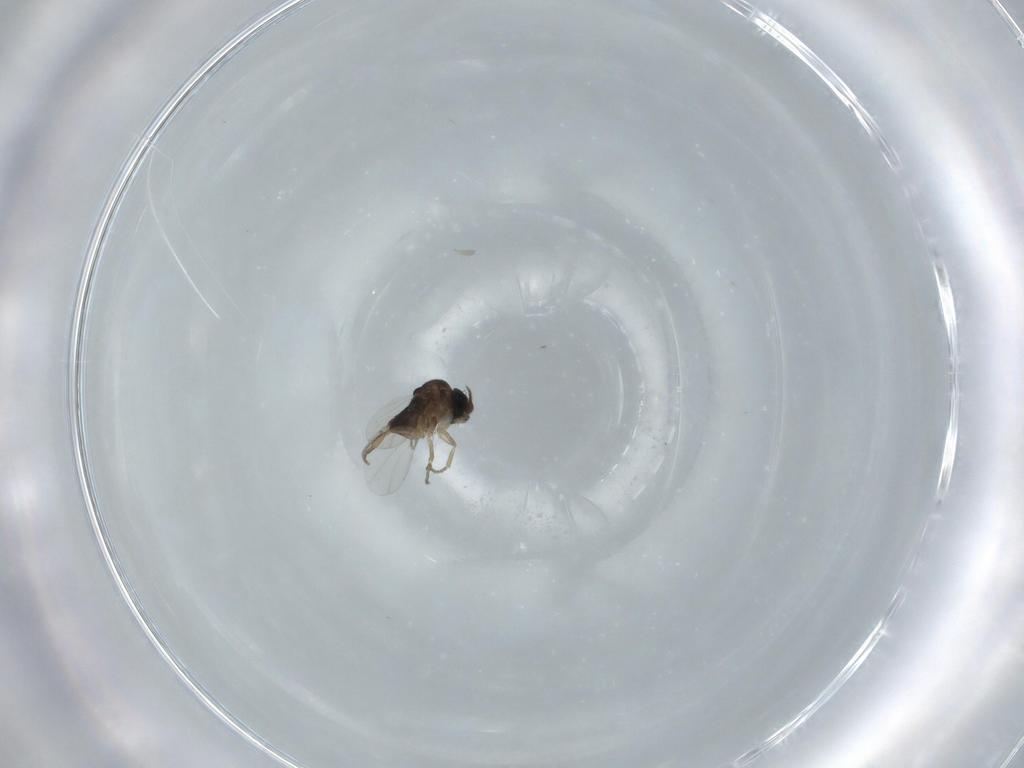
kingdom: Animalia
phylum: Arthropoda
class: Insecta
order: Diptera
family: Phoridae
